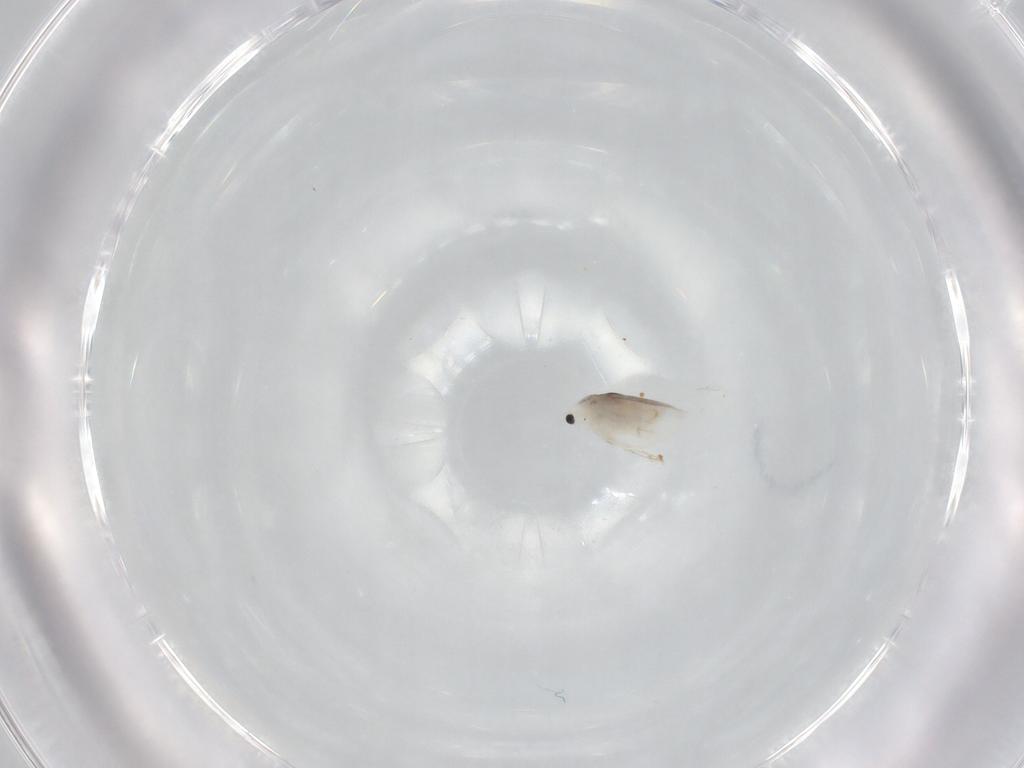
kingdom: Animalia
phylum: Arthropoda
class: Branchiopoda
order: Diplostraca
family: Daphniidae
